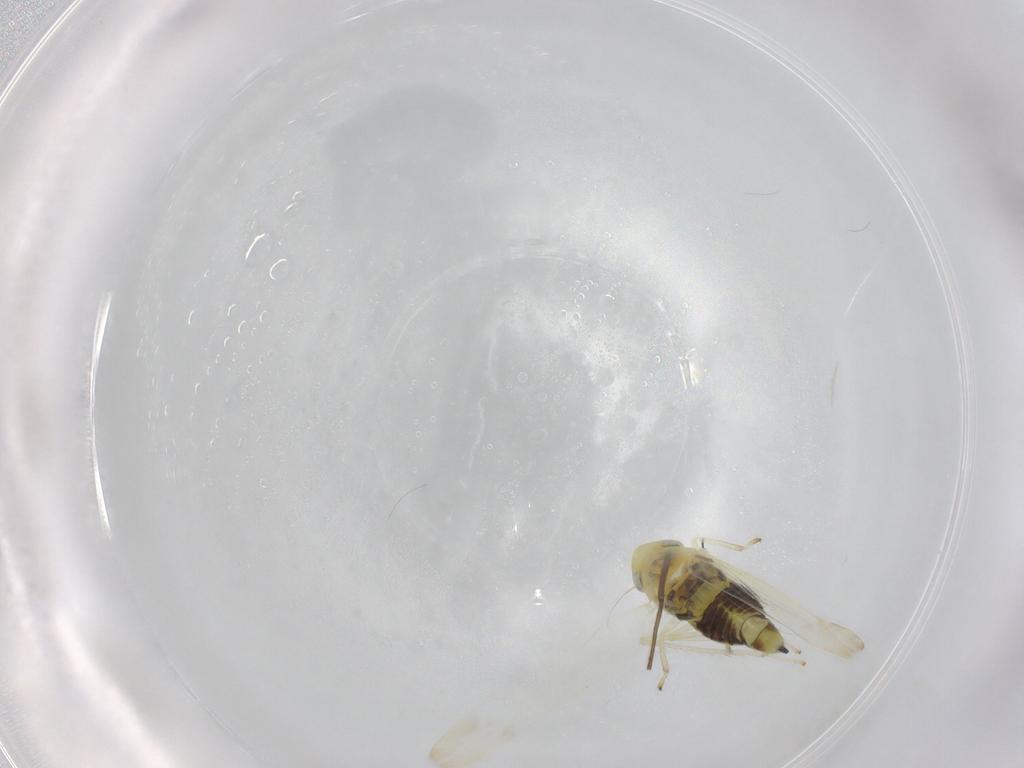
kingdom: Animalia
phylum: Arthropoda
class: Insecta
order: Hemiptera
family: Cicadellidae
